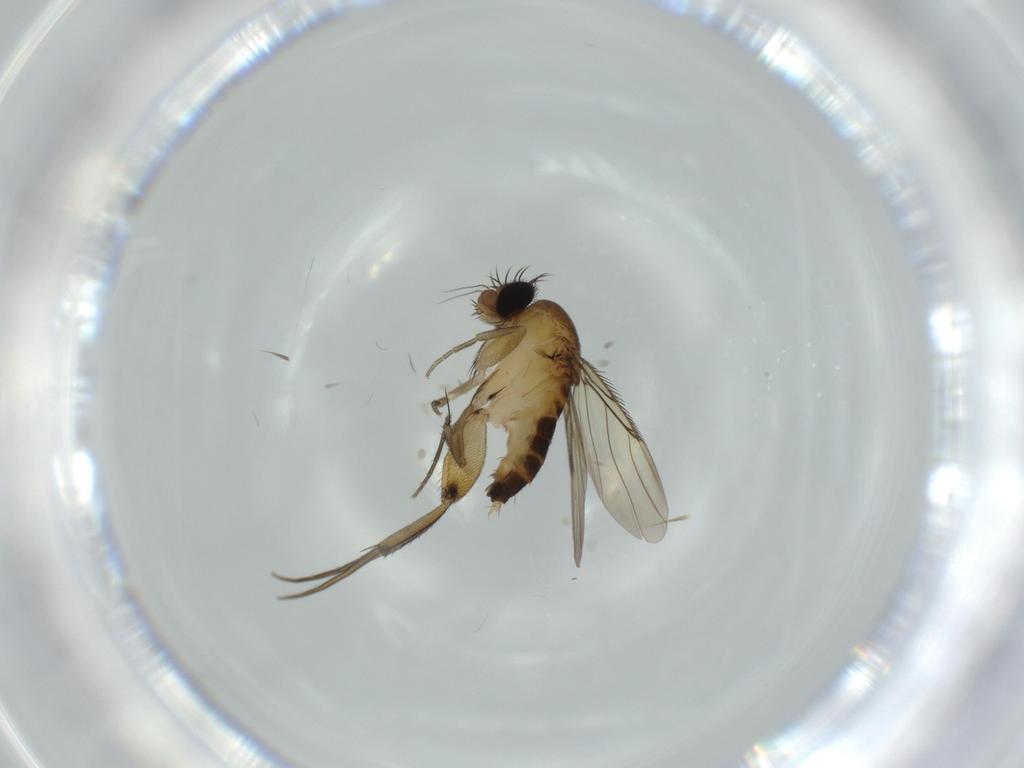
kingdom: Animalia
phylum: Arthropoda
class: Insecta
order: Diptera
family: Phoridae
